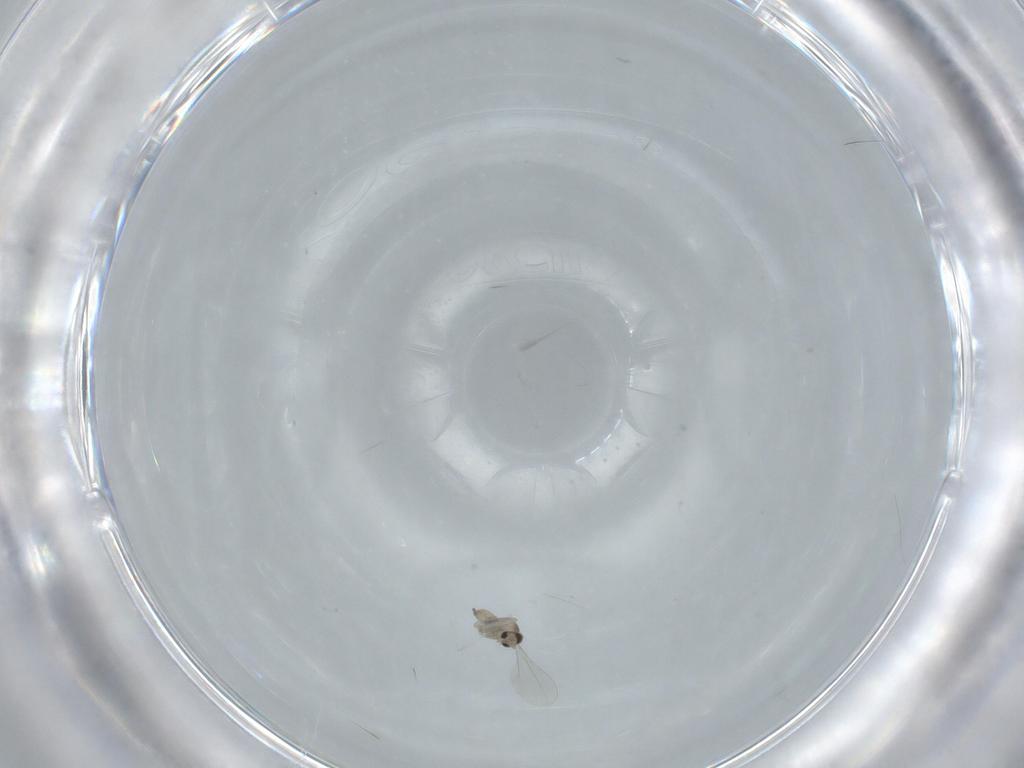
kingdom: Animalia
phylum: Arthropoda
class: Insecta
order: Diptera
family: Cecidomyiidae
